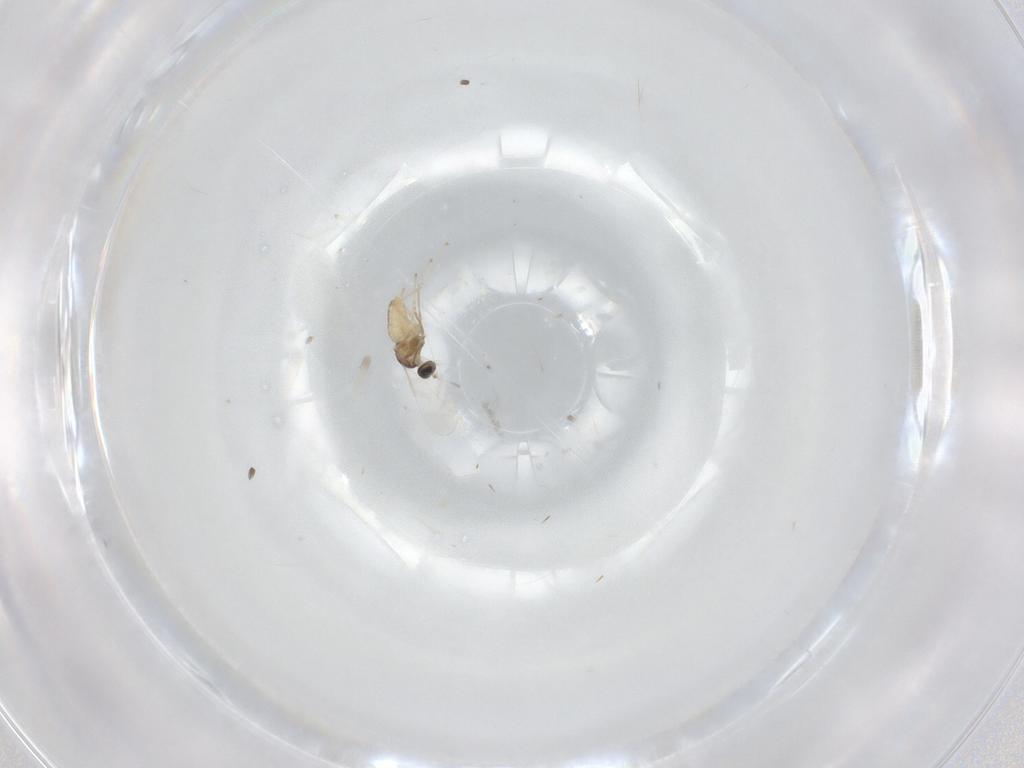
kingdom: Animalia
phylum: Arthropoda
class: Insecta
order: Diptera
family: Cecidomyiidae
